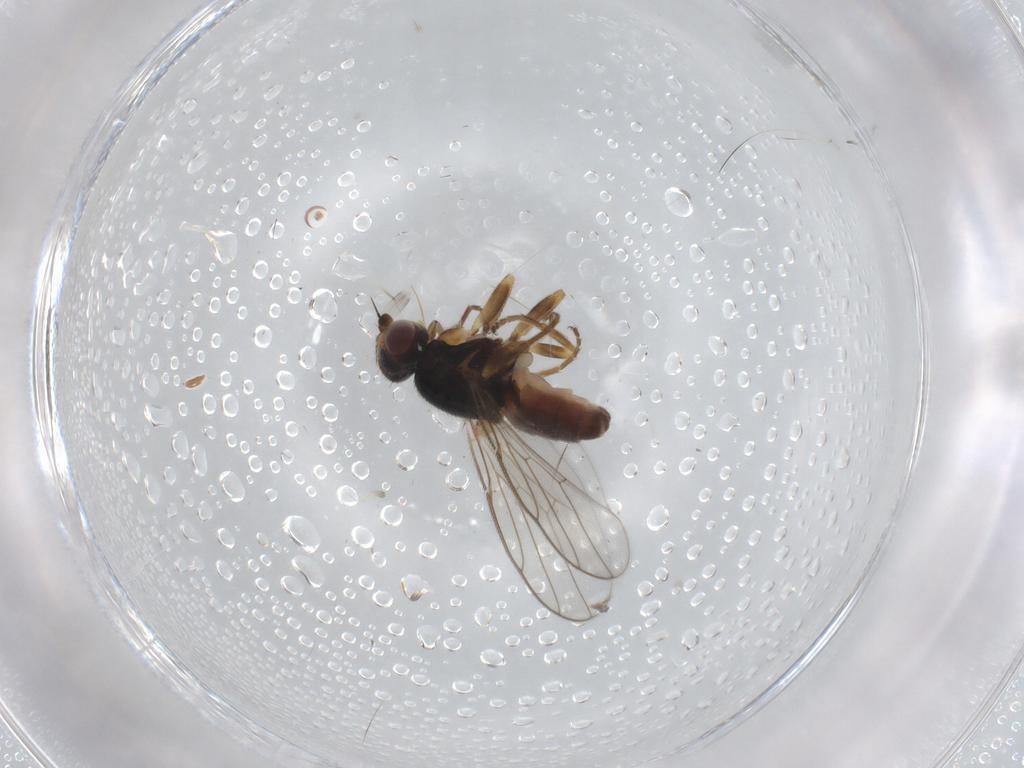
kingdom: Animalia
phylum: Arthropoda
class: Insecta
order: Diptera
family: Chloropidae
